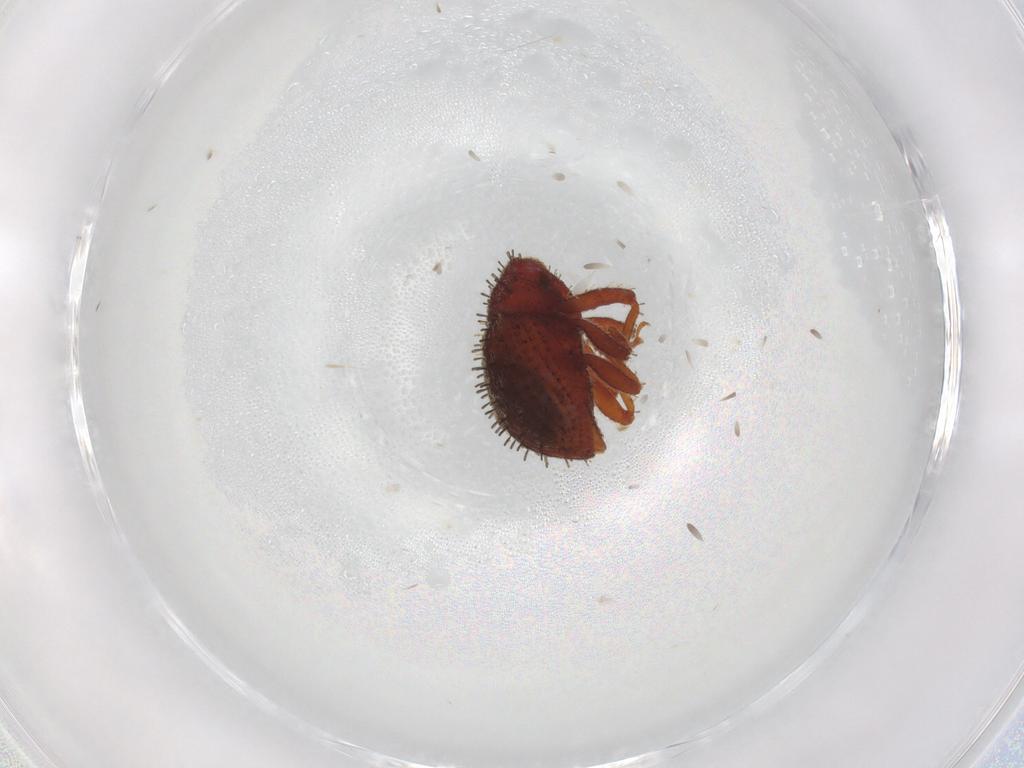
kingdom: Animalia
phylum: Arthropoda
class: Insecta
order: Coleoptera
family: Curculionidae
